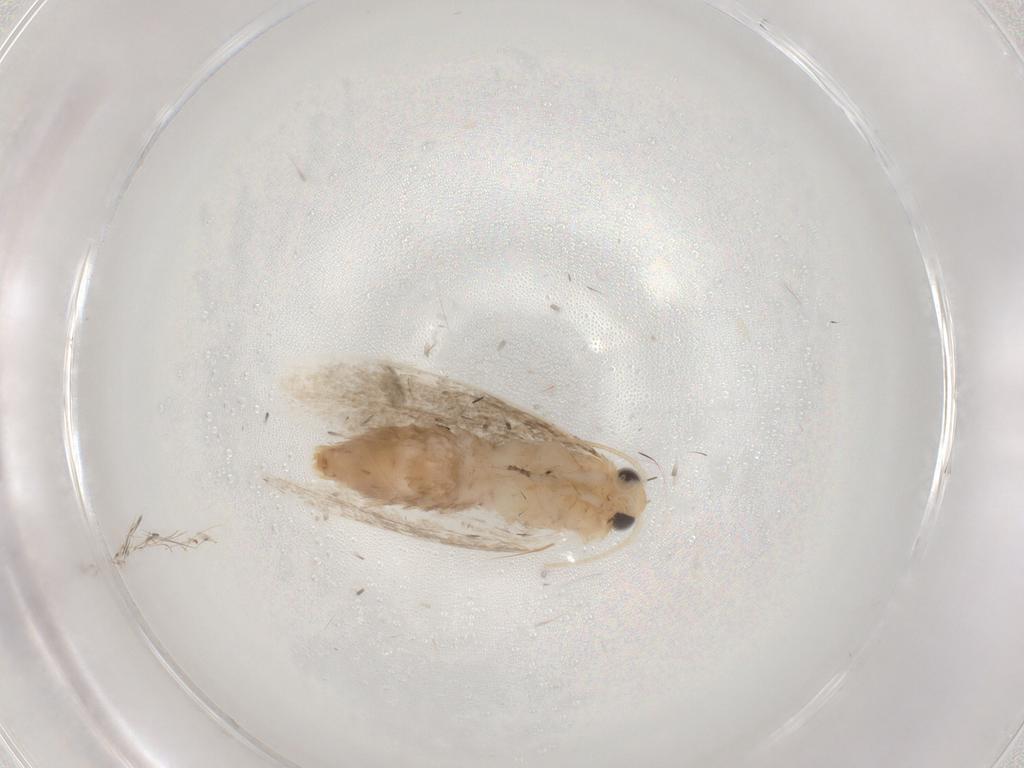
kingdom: Animalia
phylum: Arthropoda
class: Insecta
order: Lepidoptera
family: Dryadaulidae
